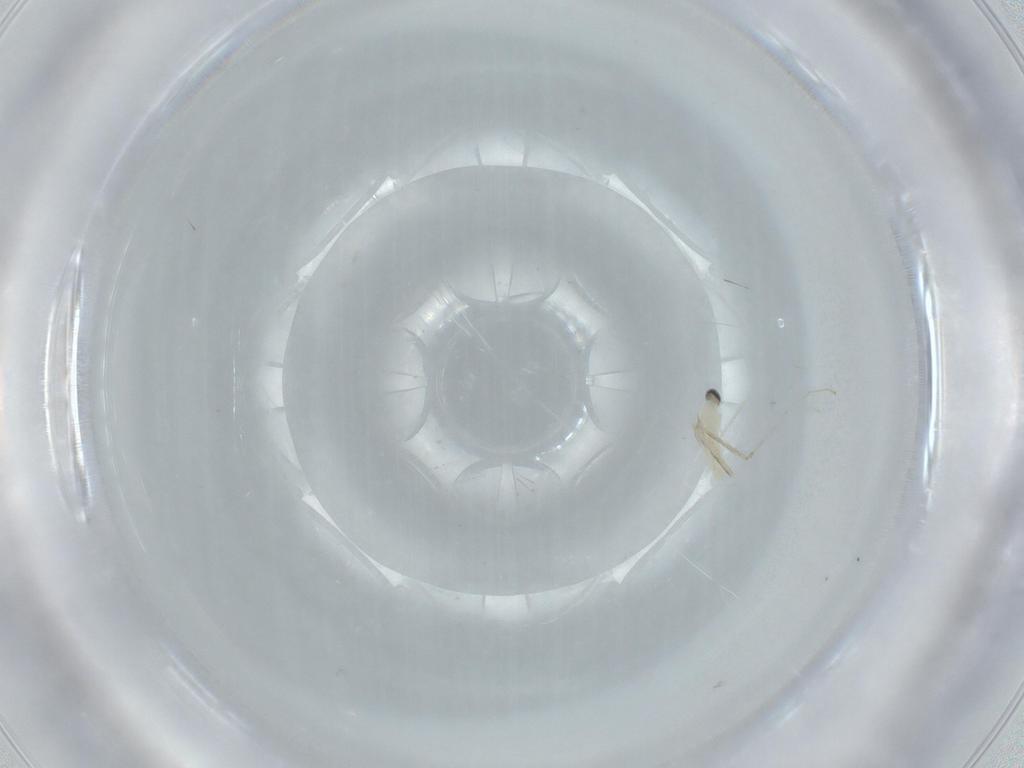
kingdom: Animalia
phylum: Arthropoda
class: Insecta
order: Diptera
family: Cecidomyiidae
